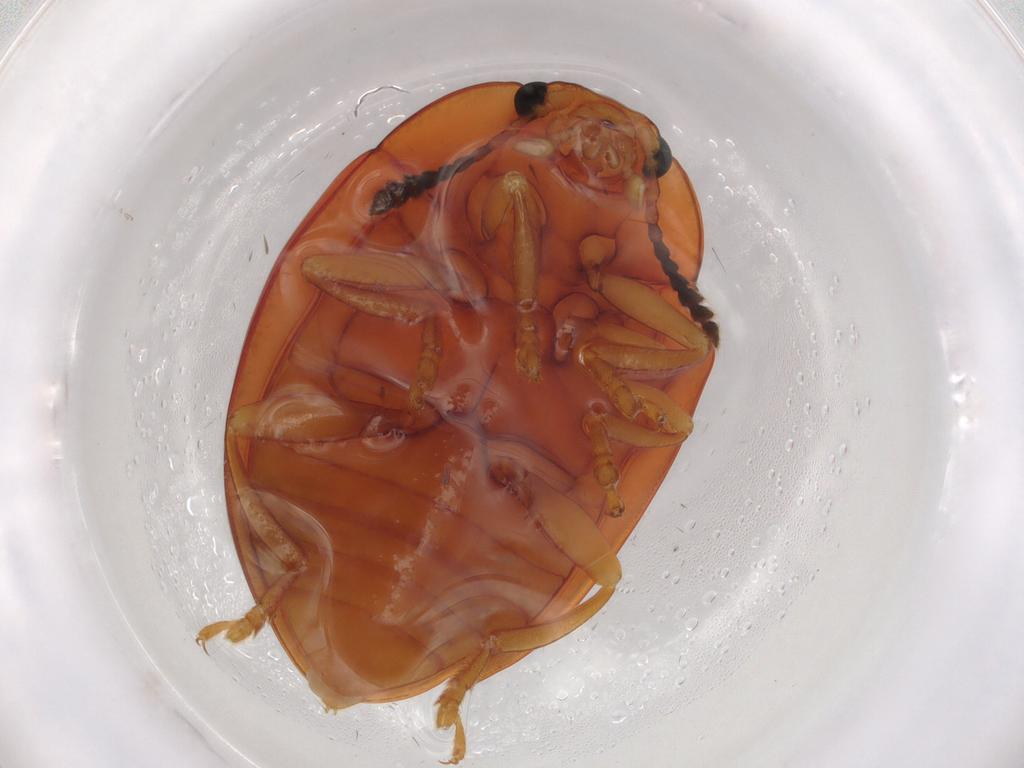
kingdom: Animalia
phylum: Arthropoda
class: Insecta
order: Coleoptera
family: Erotylidae
